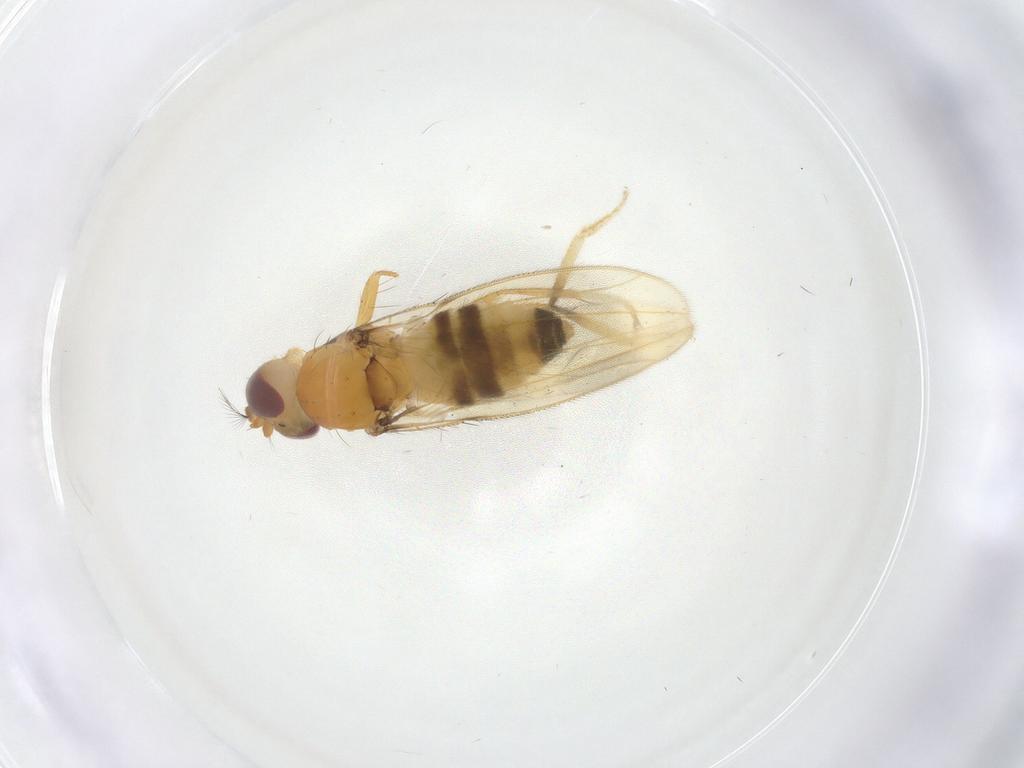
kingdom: Animalia
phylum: Arthropoda
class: Insecta
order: Diptera
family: Periscelididae
